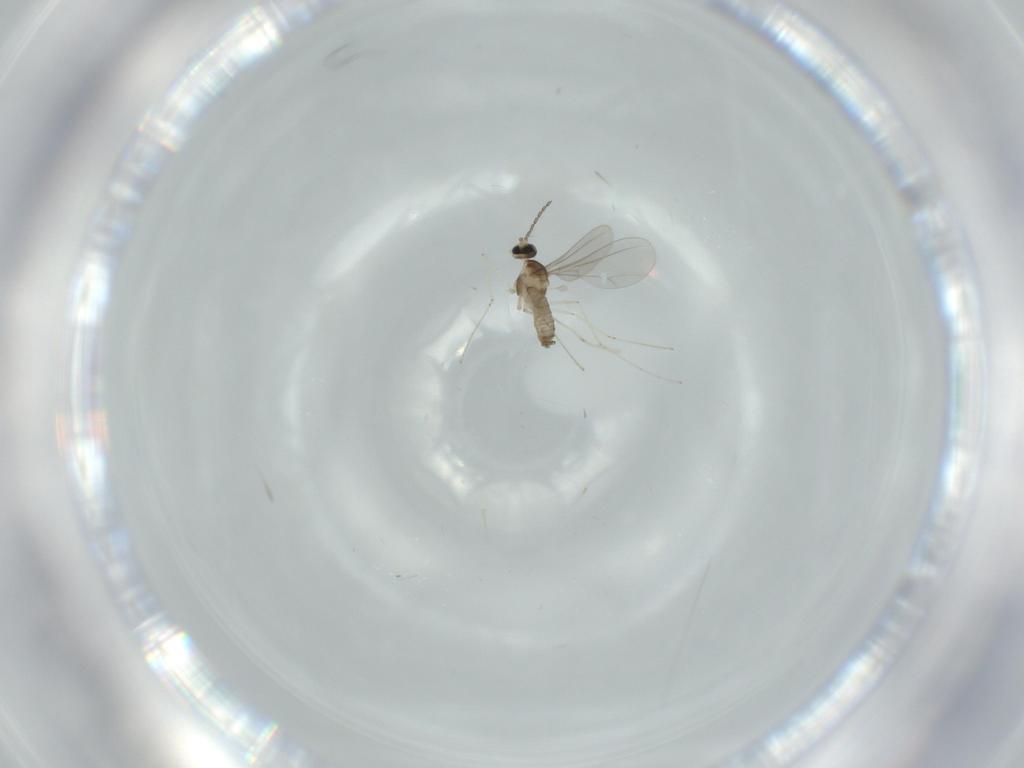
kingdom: Animalia
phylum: Arthropoda
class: Insecta
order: Diptera
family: Cecidomyiidae
